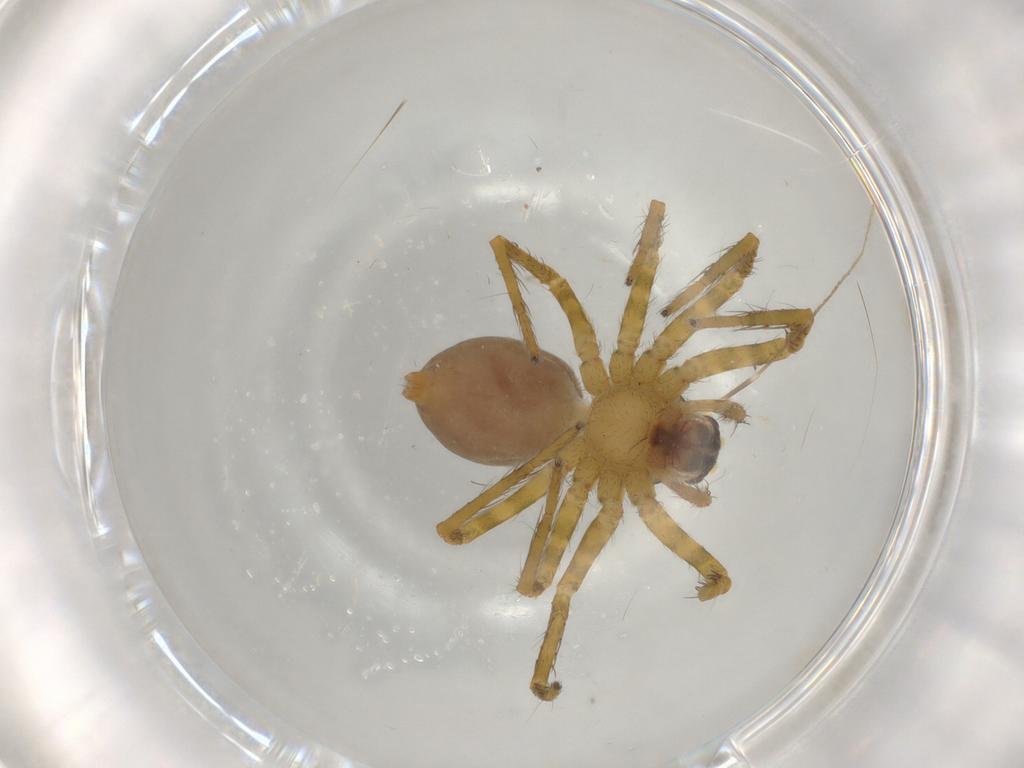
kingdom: Animalia
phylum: Arthropoda
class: Arachnida
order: Araneae
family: Trechaleidae
